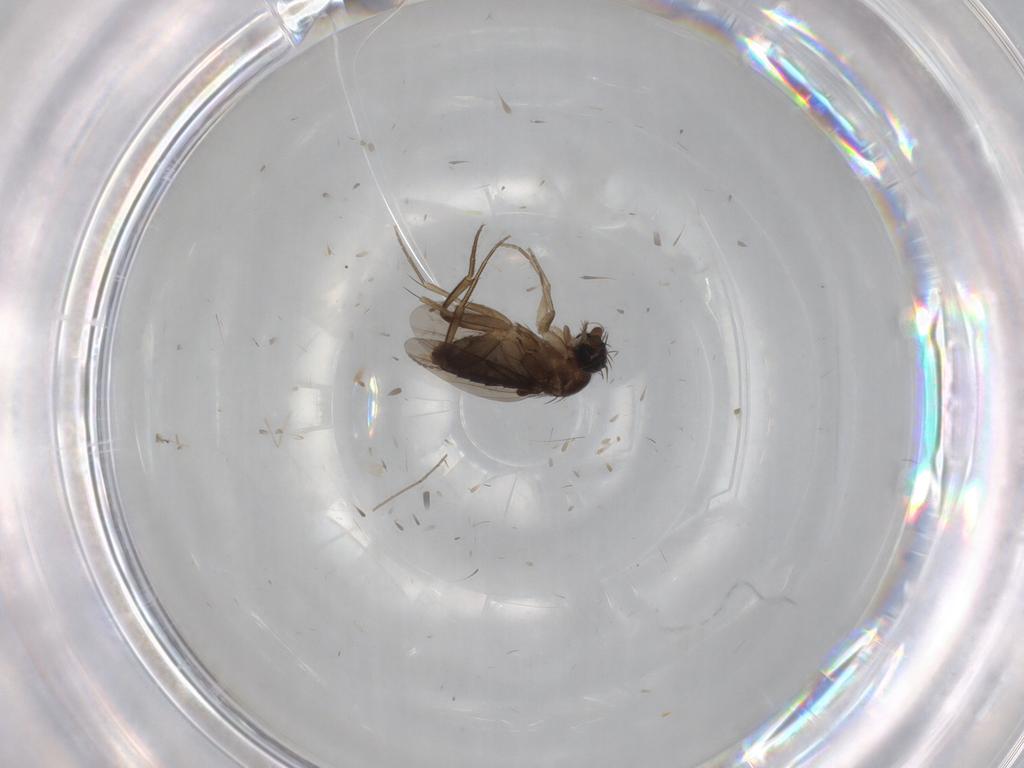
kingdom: Animalia
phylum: Arthropoda
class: Insecta
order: Diptera
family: Phoridae
